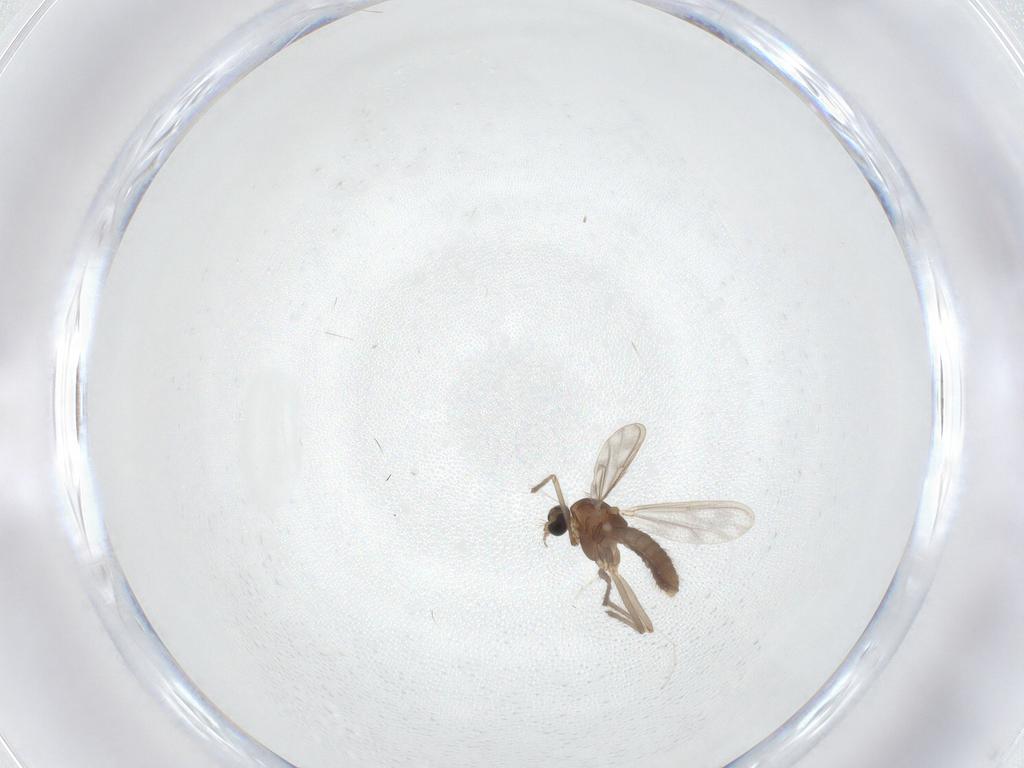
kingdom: Animalia
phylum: Arthropoda
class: Insecta
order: Diptera
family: Chironomidae
